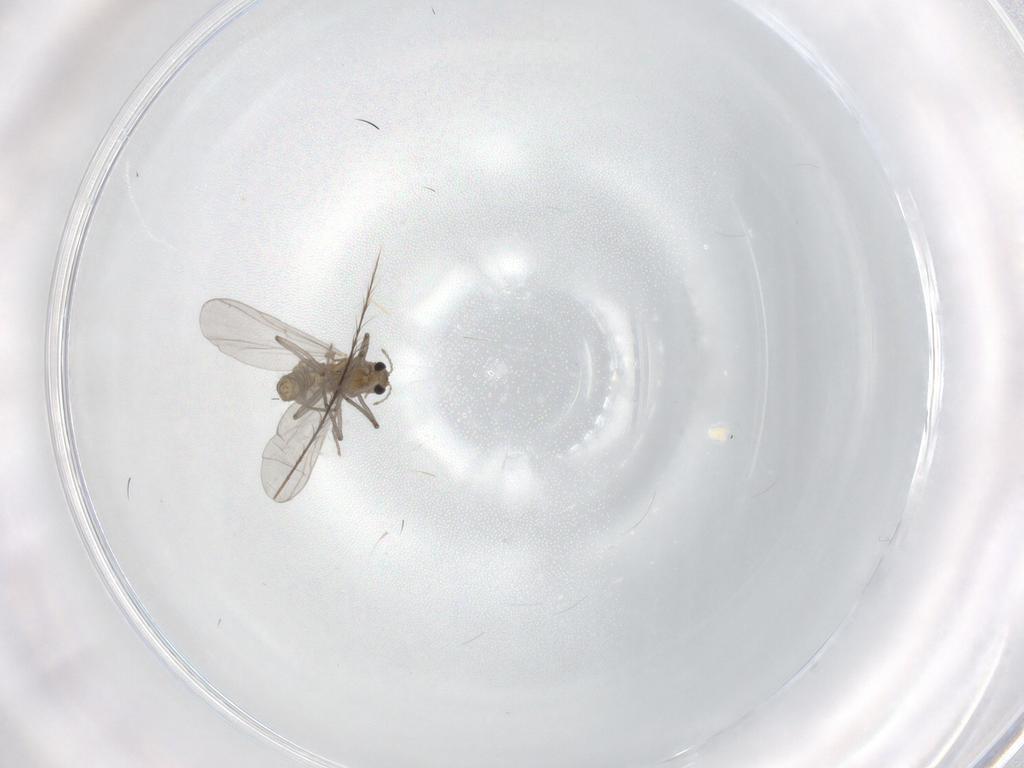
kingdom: Animalia
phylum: Arthropoda
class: Insecta
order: Diptera
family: Chironomidae
